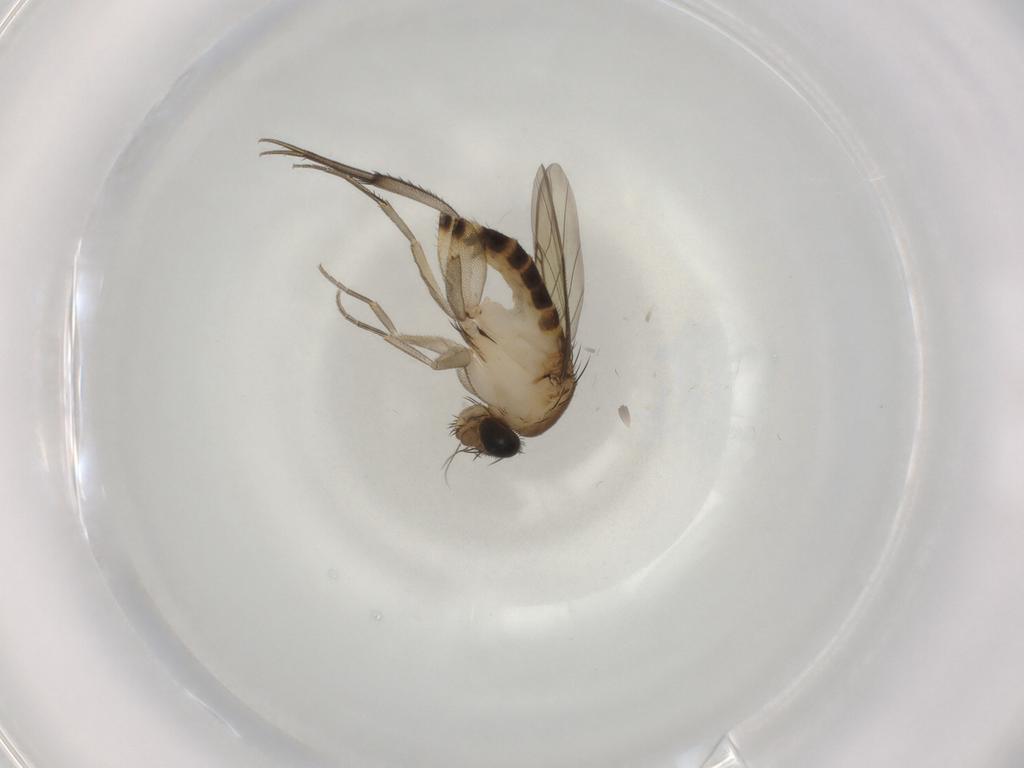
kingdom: Animalia
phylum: Arthropoda
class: Insecta
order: Diptera
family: Phoridae
